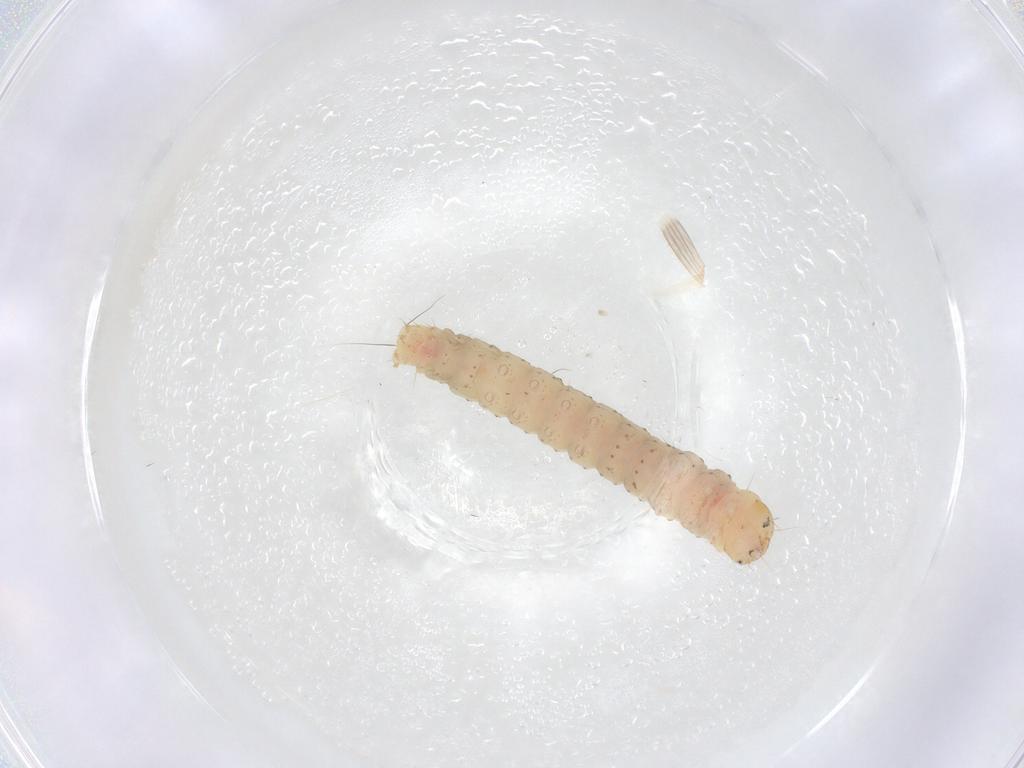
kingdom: Animalia
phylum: Arthropoda
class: Insecta
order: Lepidoptera
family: Gelechiidae
